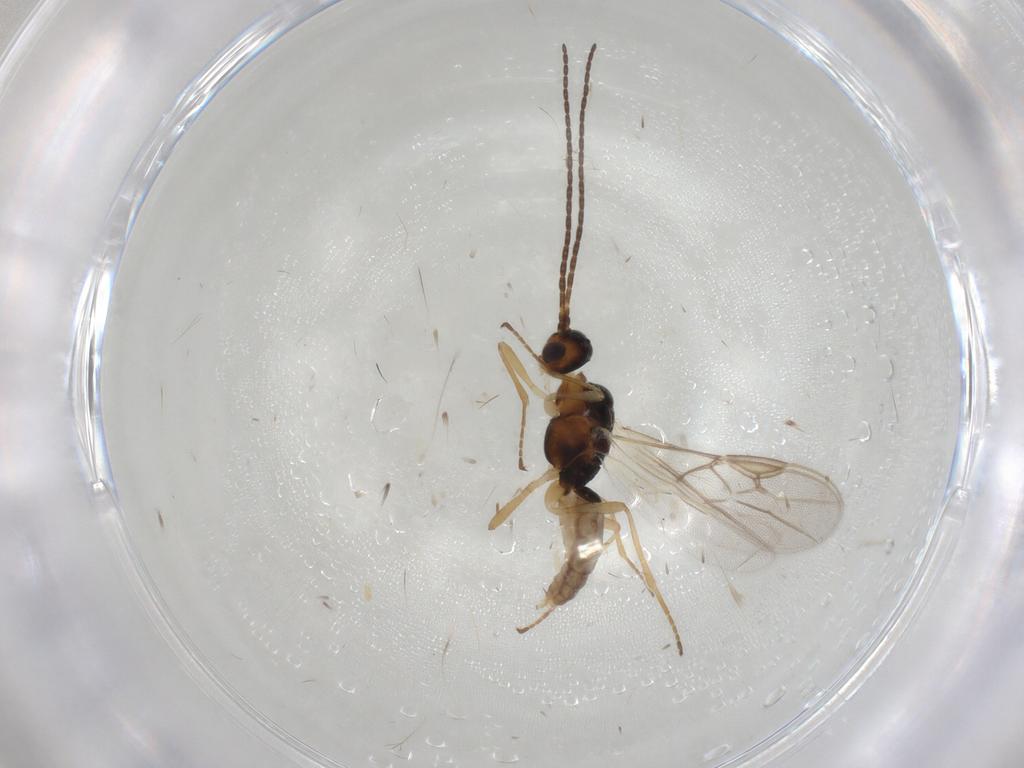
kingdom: Animalia
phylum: Arthropoda
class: Insecta
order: Hymenoptera
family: Braconidae
